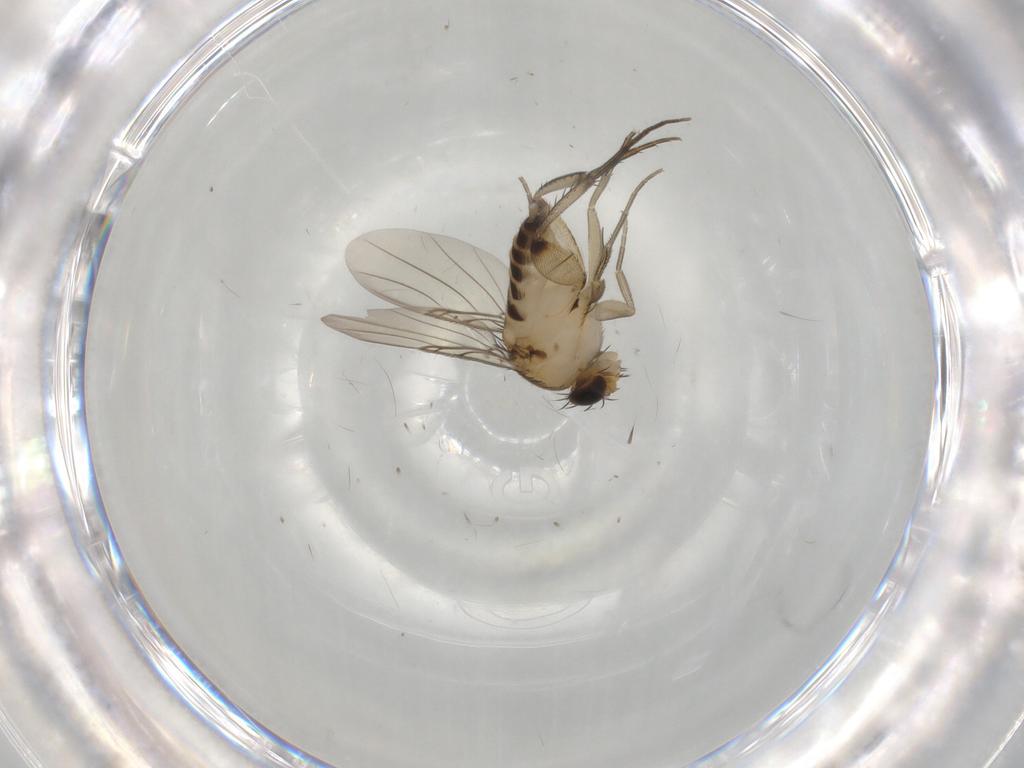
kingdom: Animalia
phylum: Arthropoda
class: Insecta
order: Diptera
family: Phoridae
